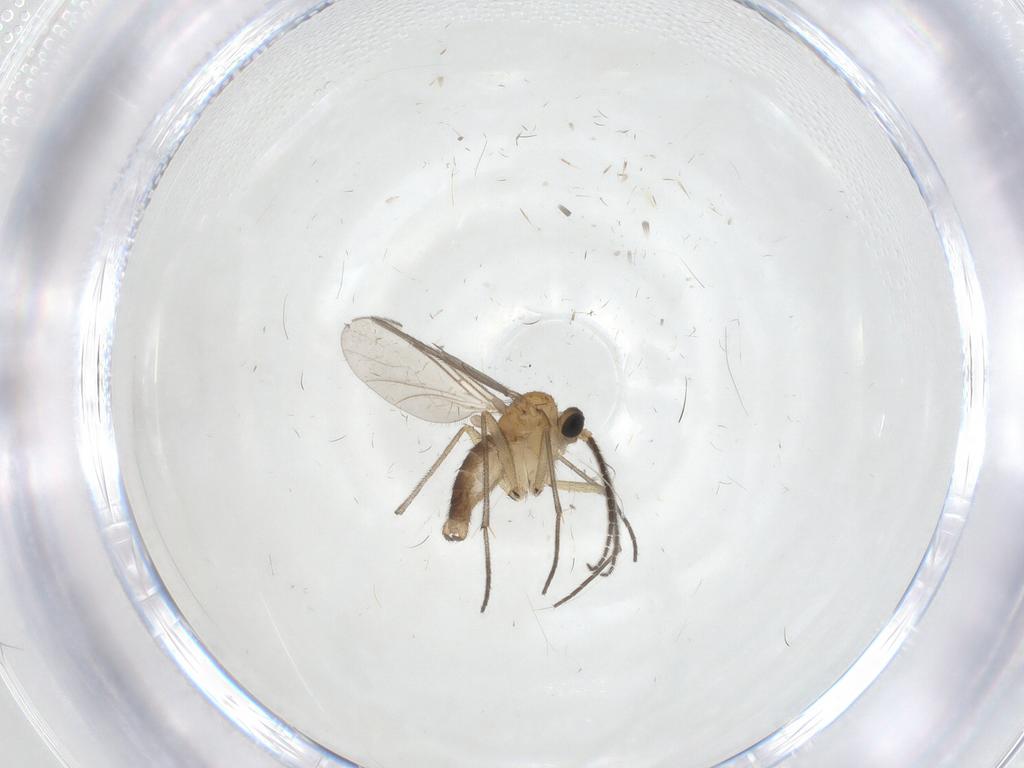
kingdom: Animalia
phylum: Arthropoda
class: Insecta
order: Diptera
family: Sciaridae
